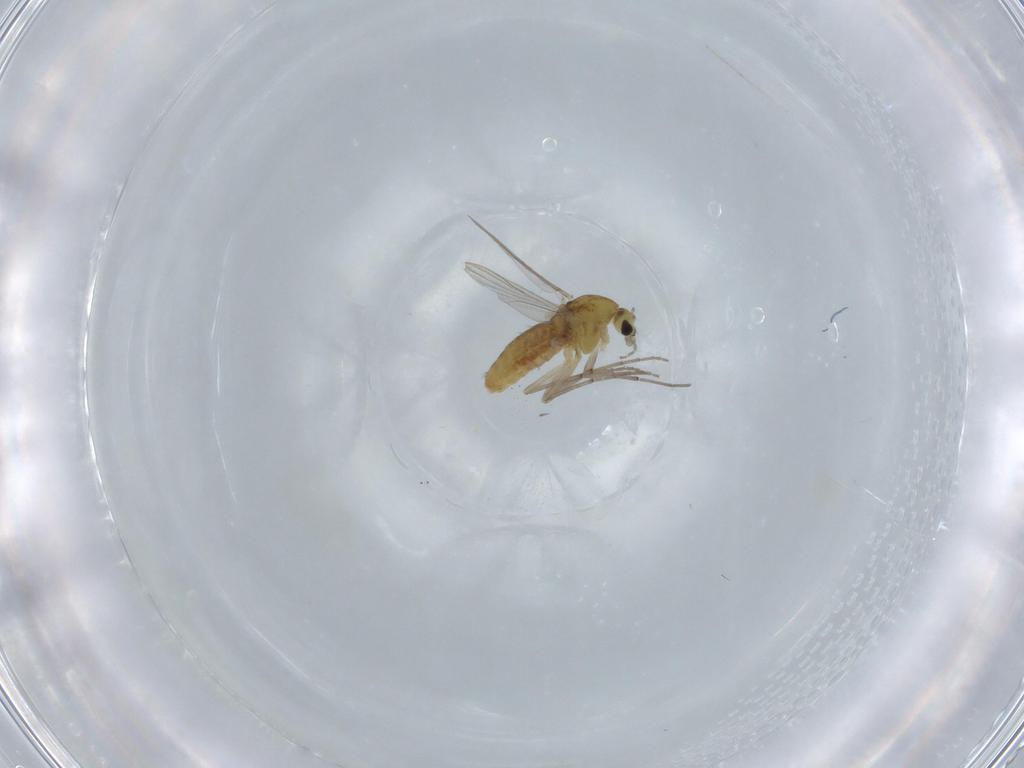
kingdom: Animalia
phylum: Arthropoda
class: Insecta
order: Diptera
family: Chironomidae
